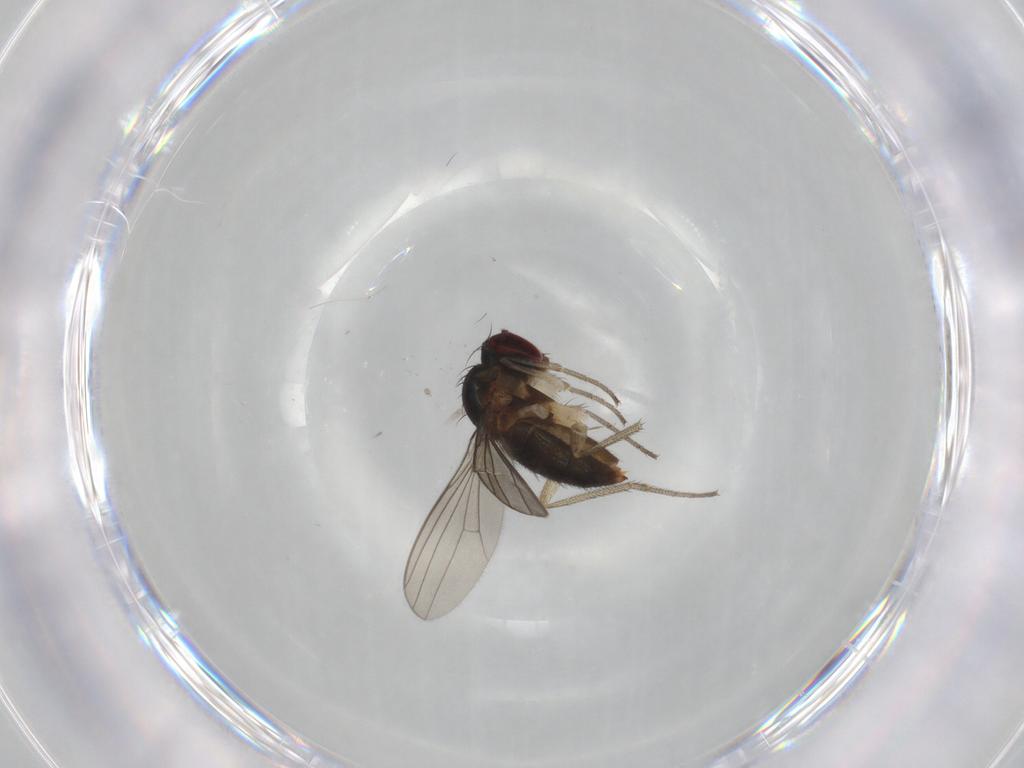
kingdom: Animalia
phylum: Arthropoda
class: Insecta
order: Diptera
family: Dolichopodidae
